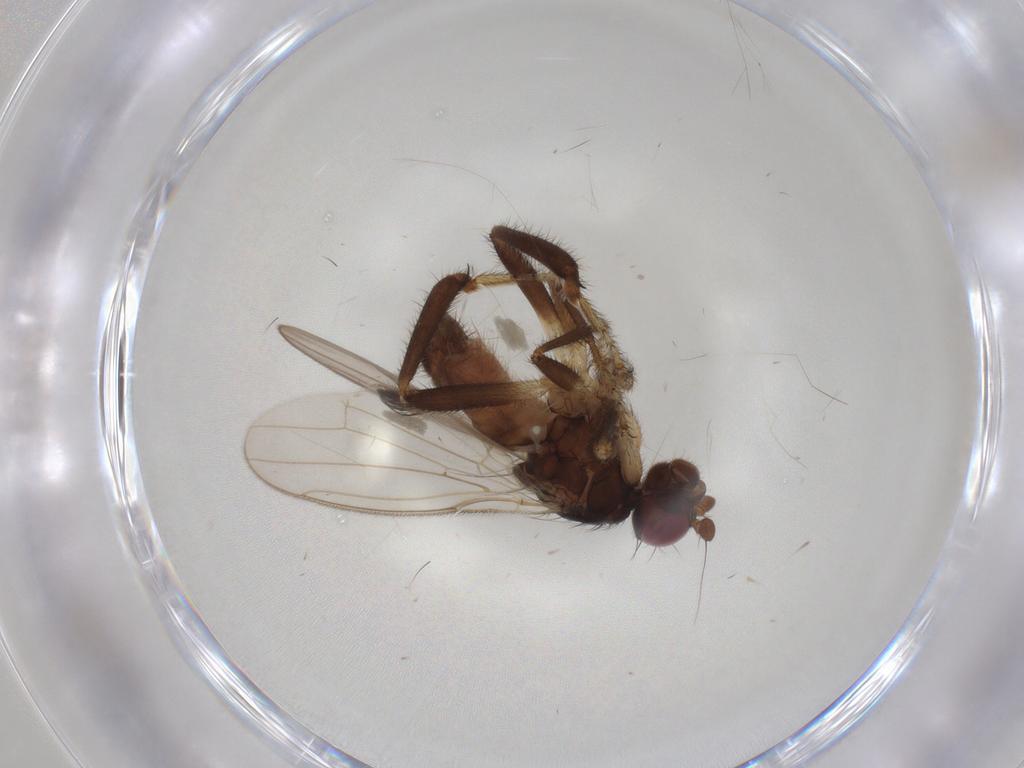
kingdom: Animalia
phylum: Arthropoda
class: Insecta
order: Diptera
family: Sphaeroceridae
